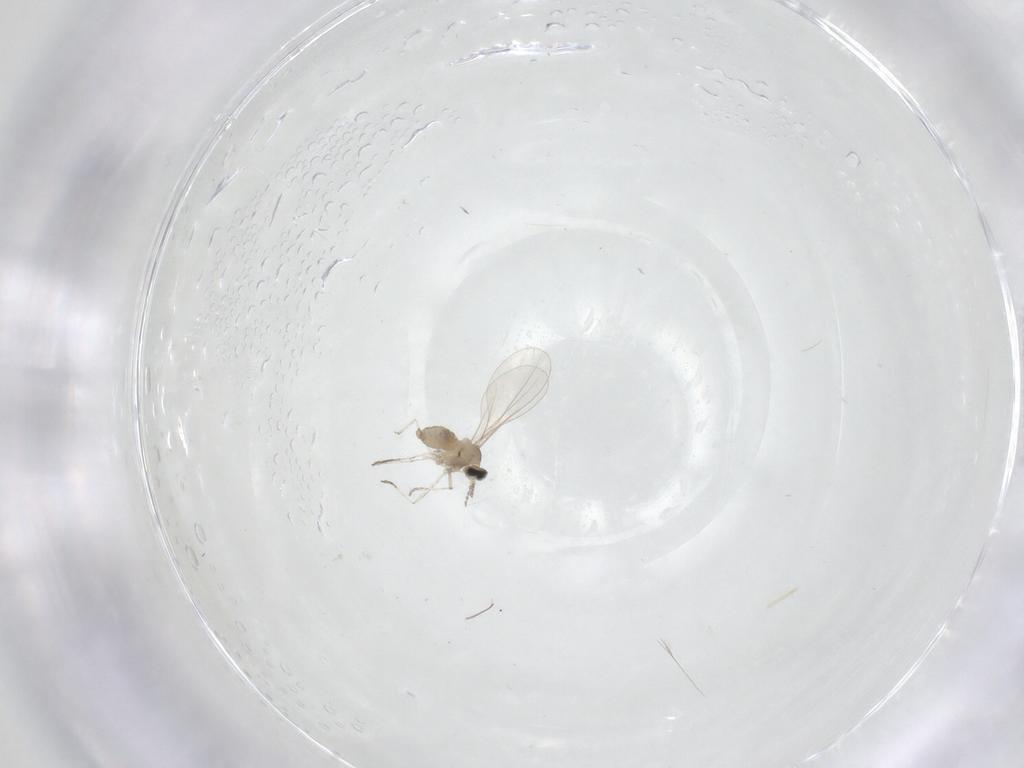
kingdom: Animalia
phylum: Arthropoda
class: Insecta
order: Diptera
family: Cecidomyiidae
